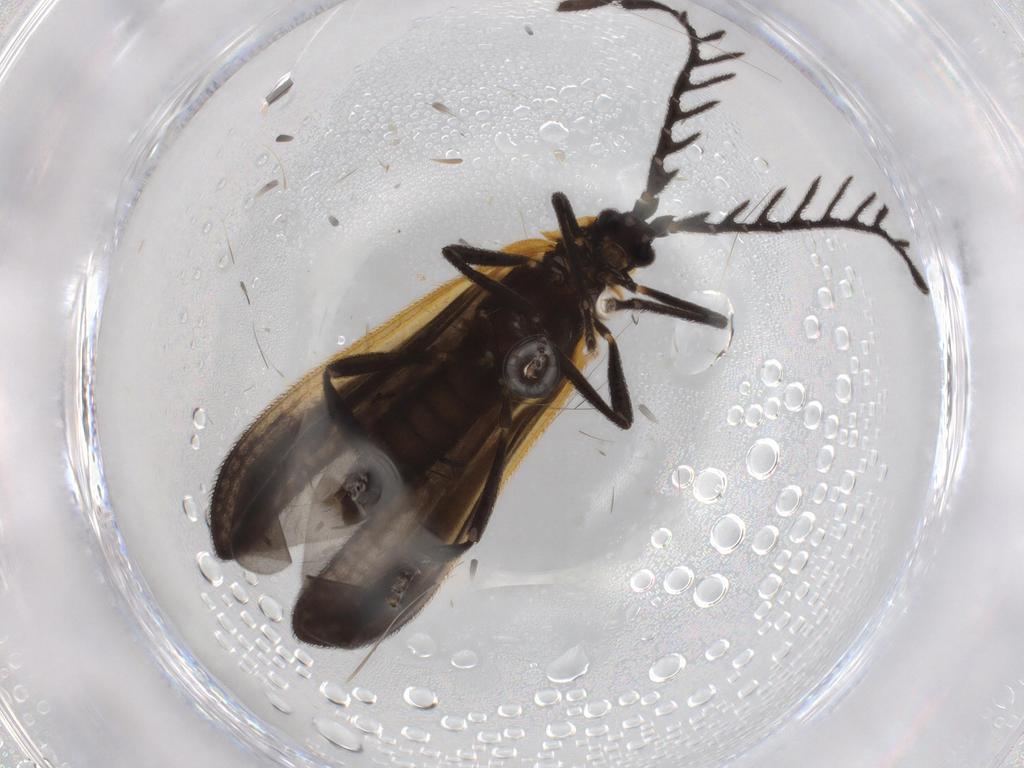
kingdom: Animalia
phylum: Arthropoda
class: Insecta
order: Coleoptera
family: Lycidae
